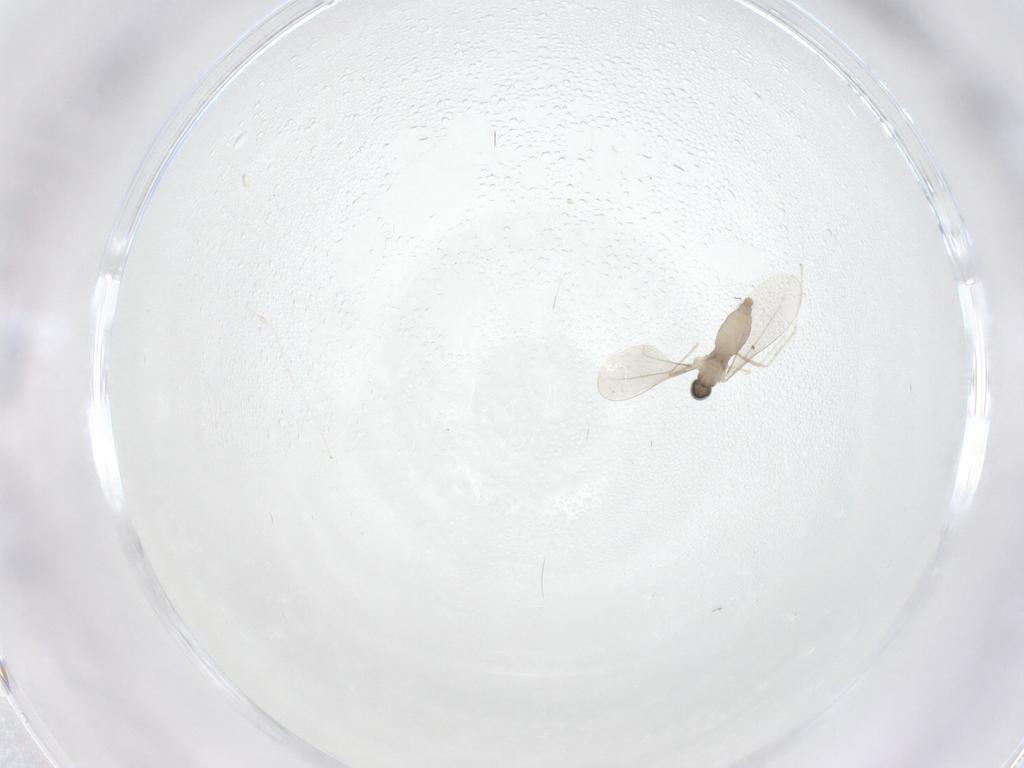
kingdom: Animalia
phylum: Arthropoda
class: Insecta
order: Diptera
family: Cecidomyiidae
